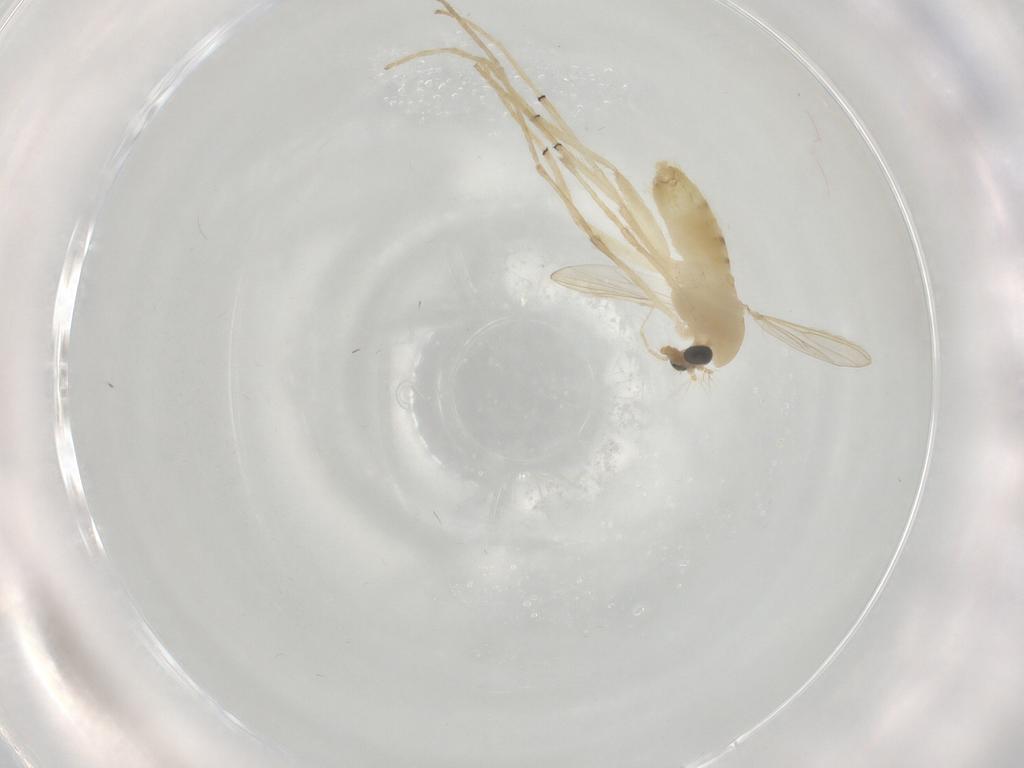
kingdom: Animalia
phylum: Arthropoda
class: Insecta
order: Diptera
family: Chironomidae
